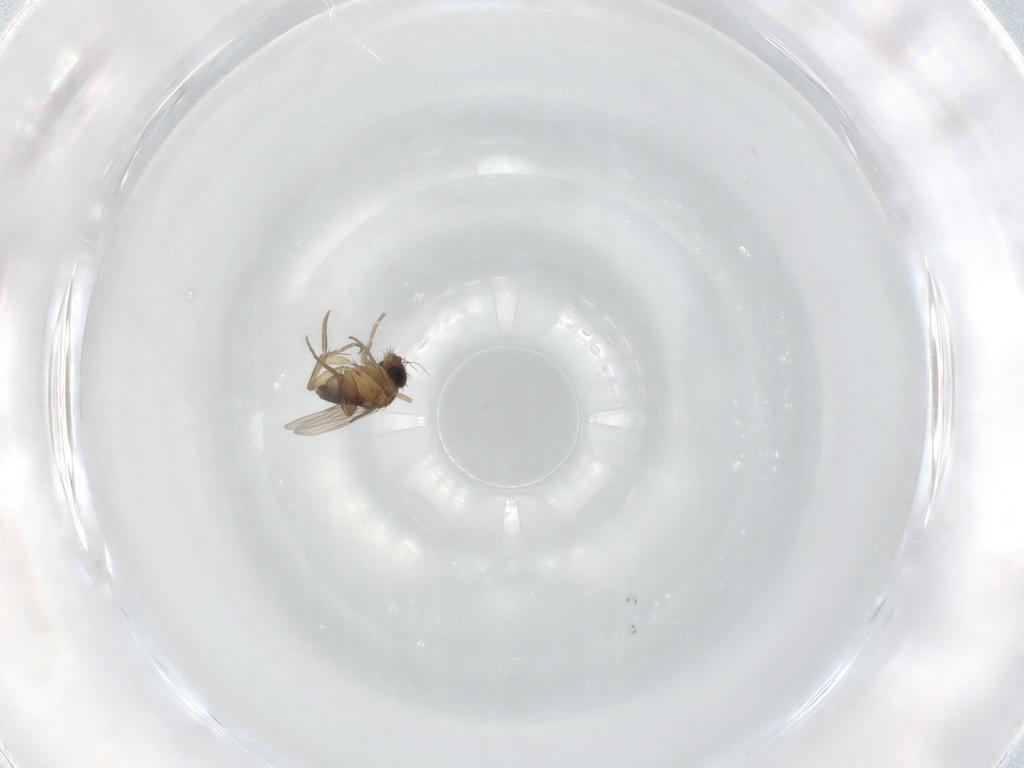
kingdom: Animalia
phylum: Arthropoda
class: Insecta
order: Diptera
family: Phoridae
